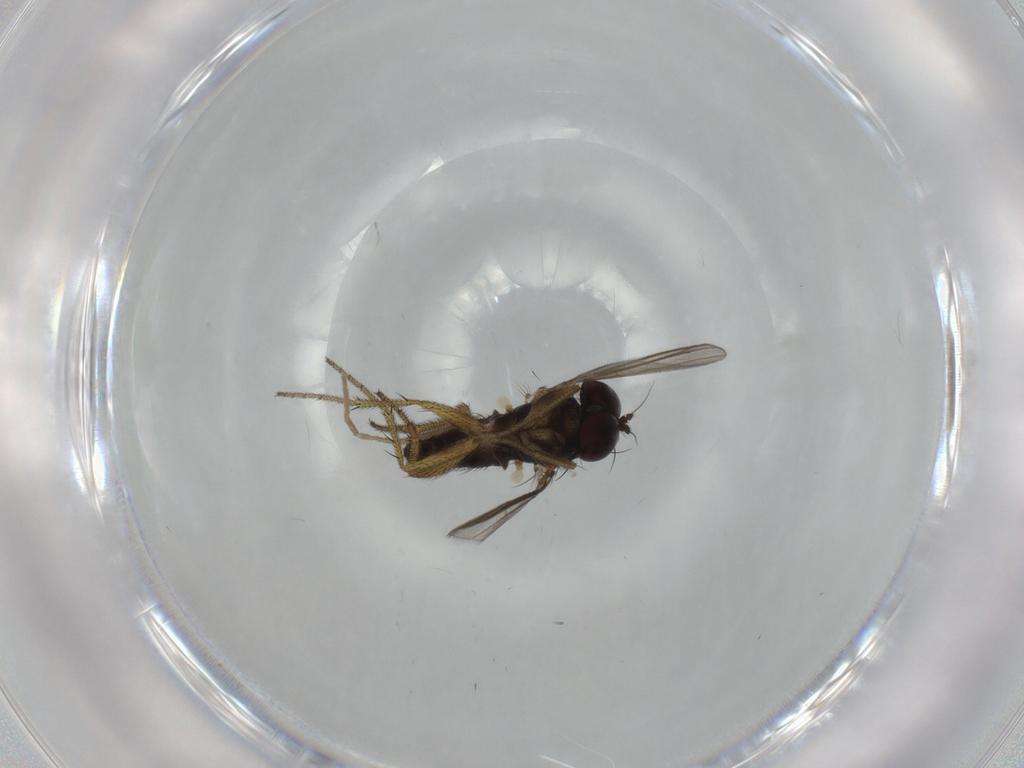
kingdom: Animalia
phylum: Arthropoda
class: Insecta
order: Diptera
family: Dolichopodidae
